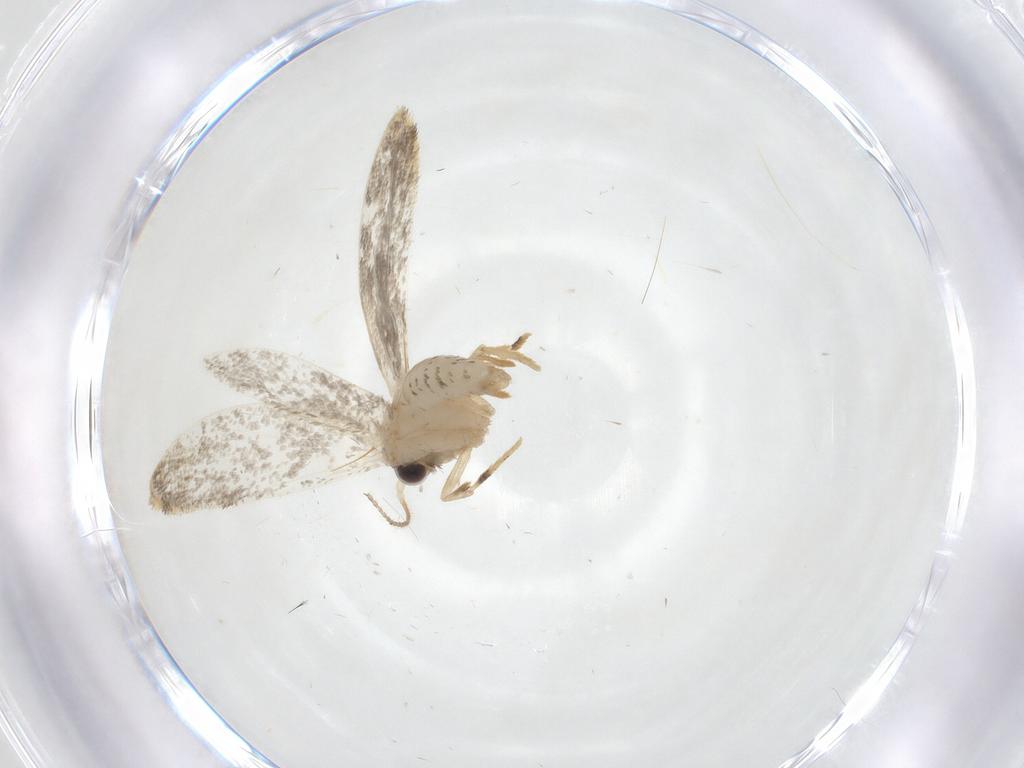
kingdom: Animalia
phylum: Arthropoda
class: Insecta
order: Lepidoptera
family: Psychidae
